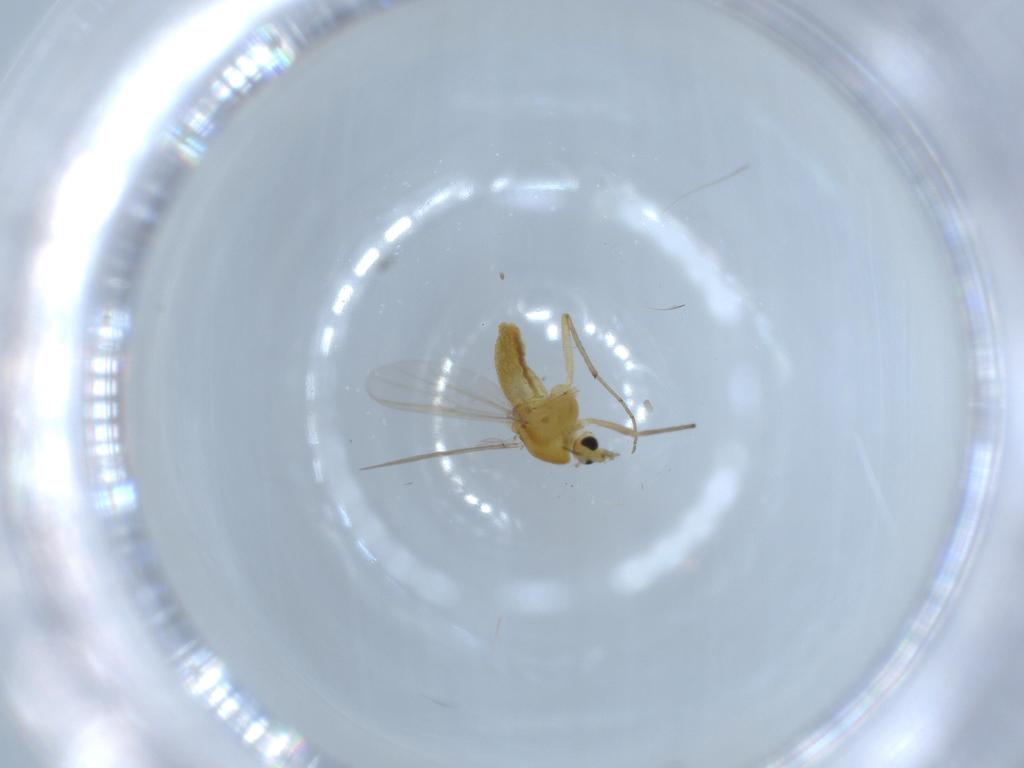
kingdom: Animalia
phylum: Arthropoda
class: Insecta
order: Diptera
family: Chironomidae
